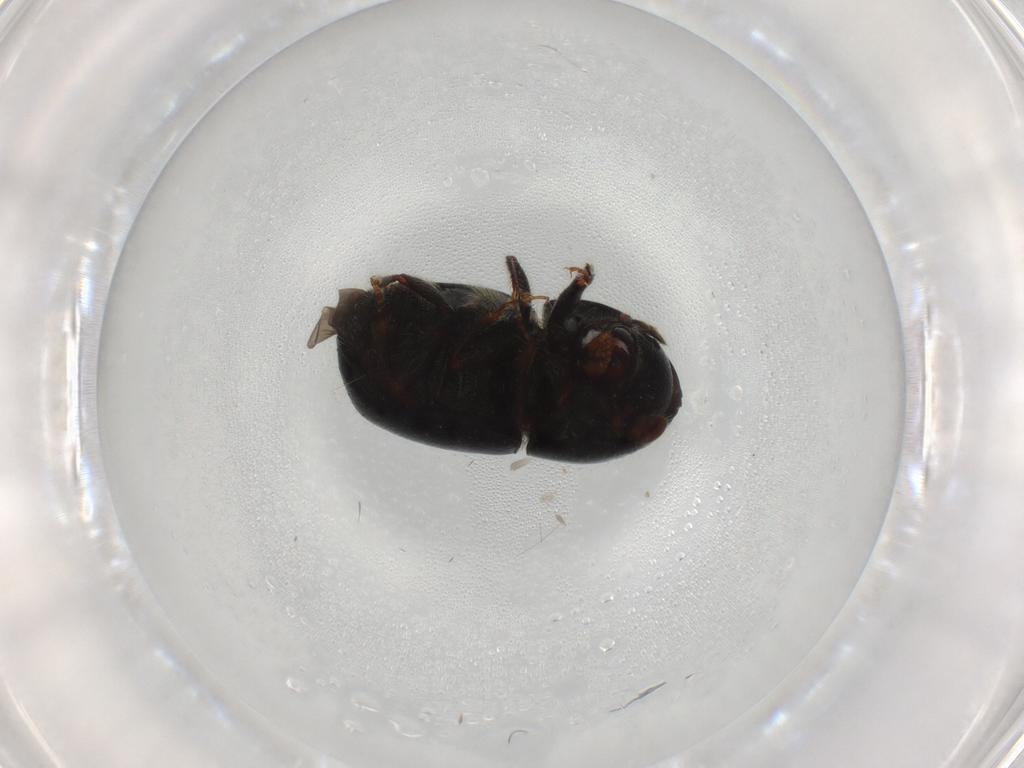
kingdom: Animalia
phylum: Arthropoda
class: Insecta
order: Coleoptera
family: Curculionidae
